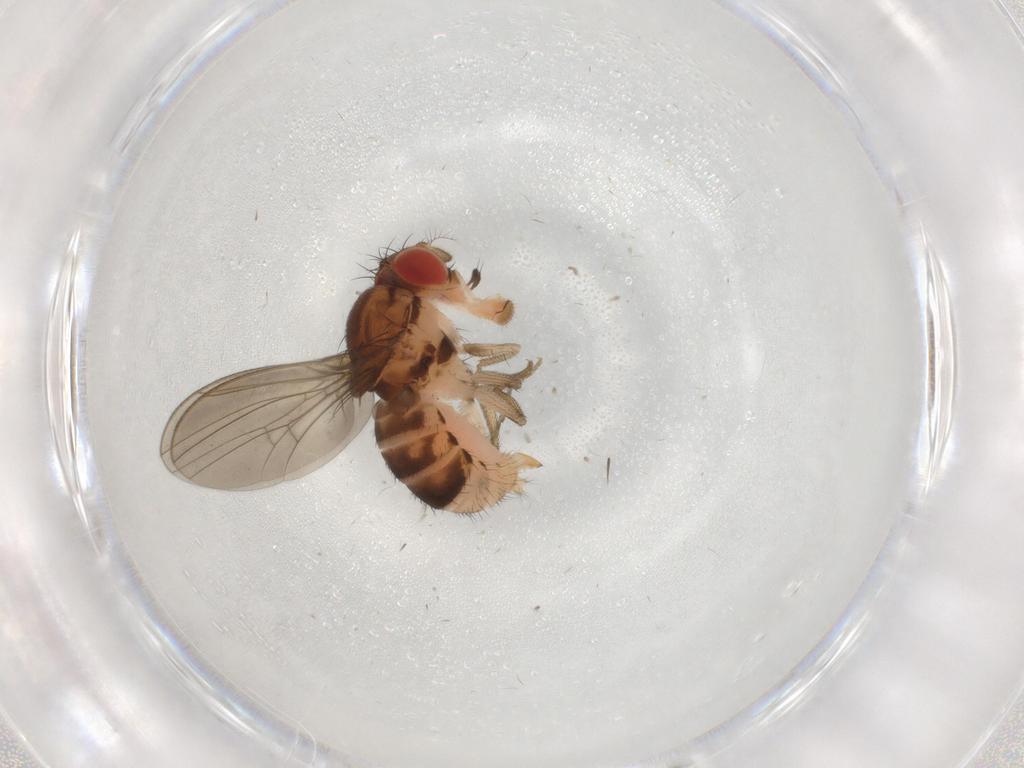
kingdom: Animalia
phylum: Arthropoda
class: Insecta
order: Diptera
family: Drosophilidae
